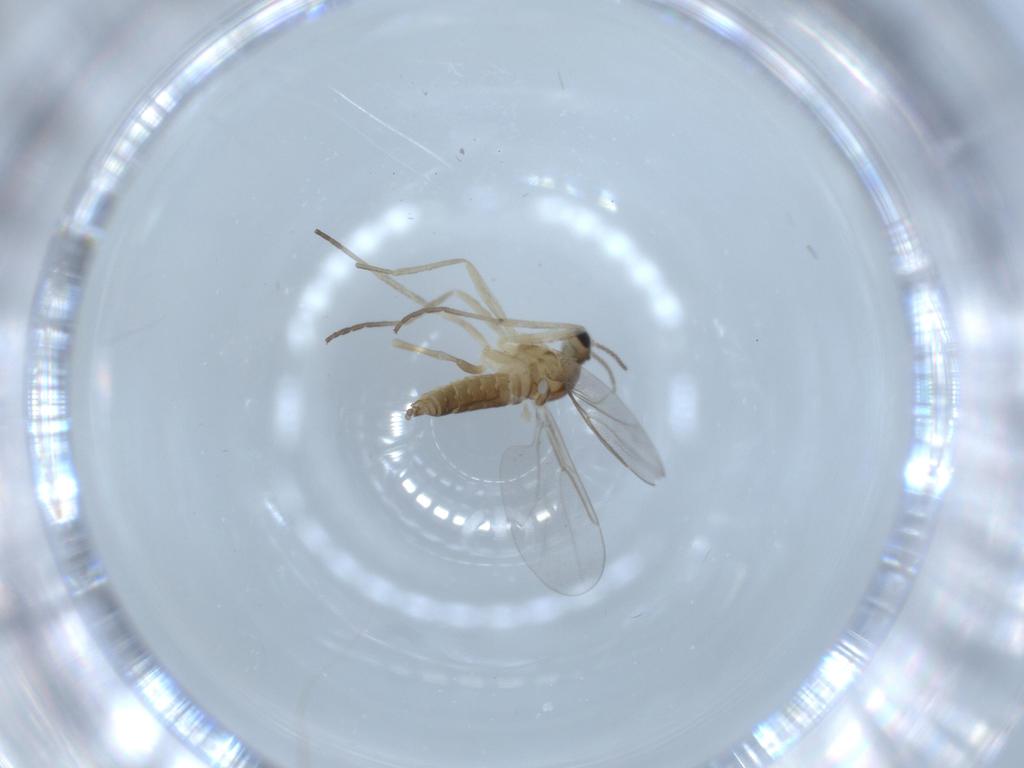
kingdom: Animalia
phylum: Arthropoda
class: Insecta
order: Diptera
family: Cecidomyiidae
